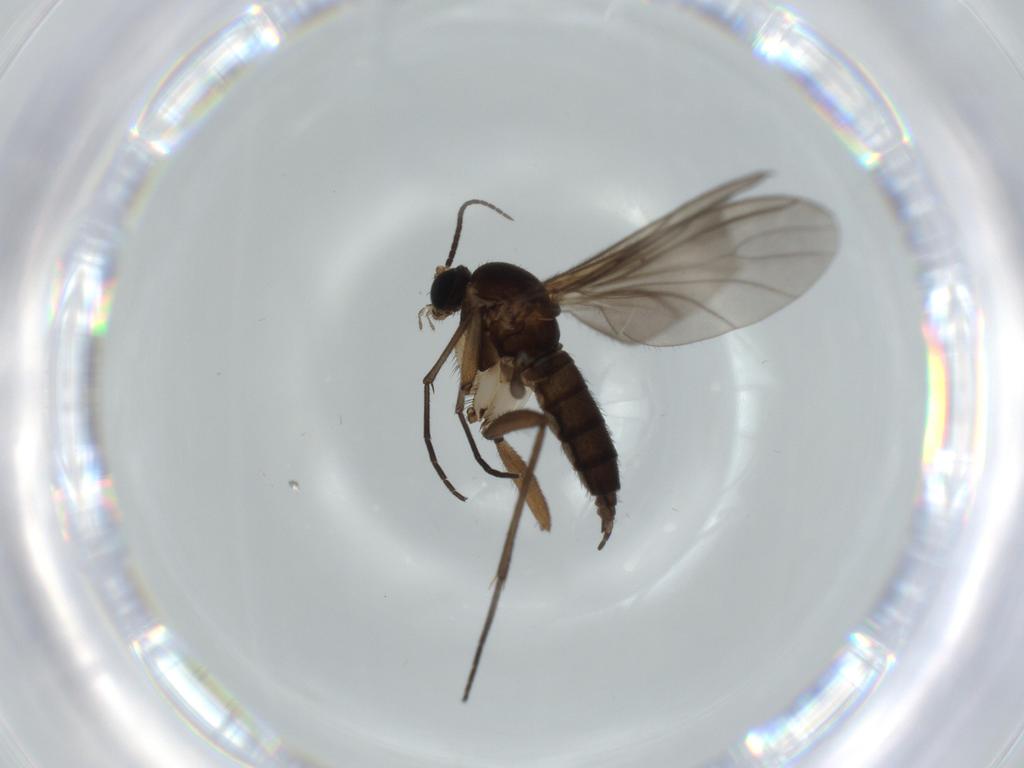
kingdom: Animalia
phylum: Arthropoda
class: Insecta
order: Diptera
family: Sciaridae
